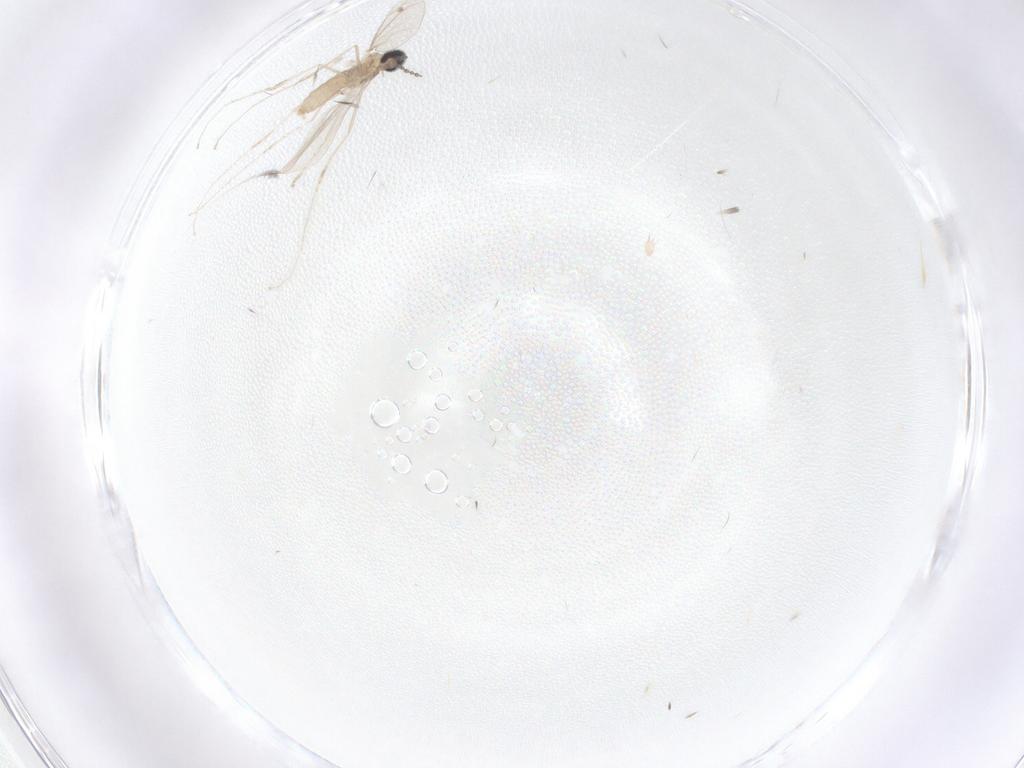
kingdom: Animalia
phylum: Arthropoda
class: Insecta
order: Diptera
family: Cecidomyiidae
